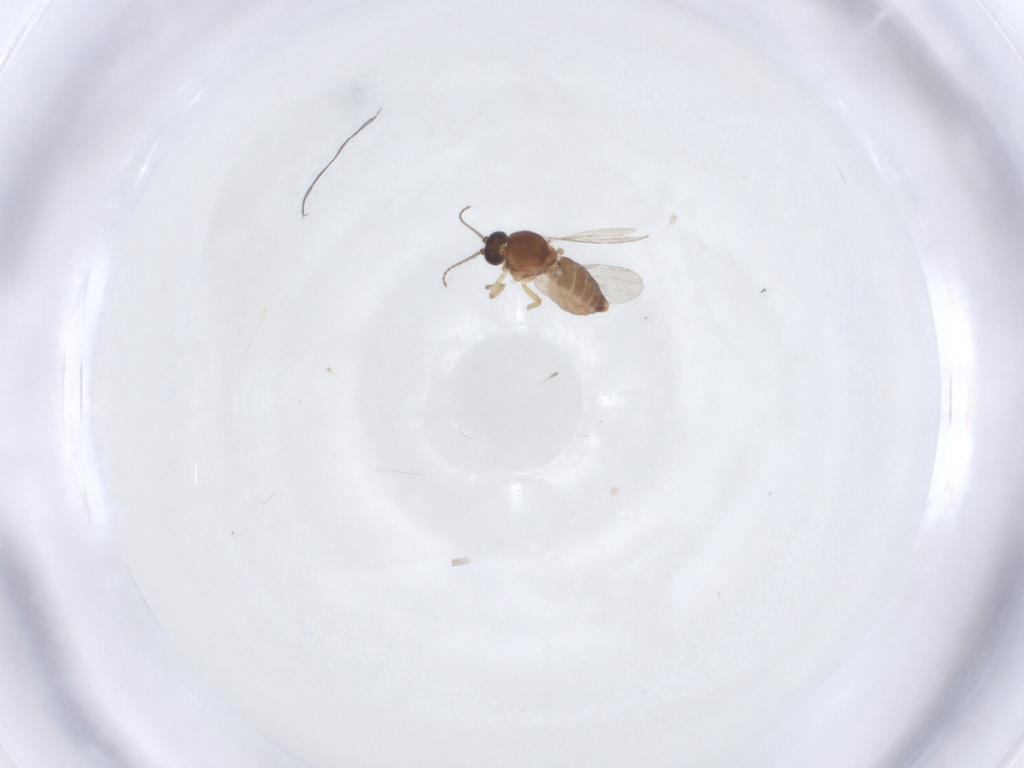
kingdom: Animalia
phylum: Arthropoda
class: Insecta
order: Diptera
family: Ceratopogonidae
